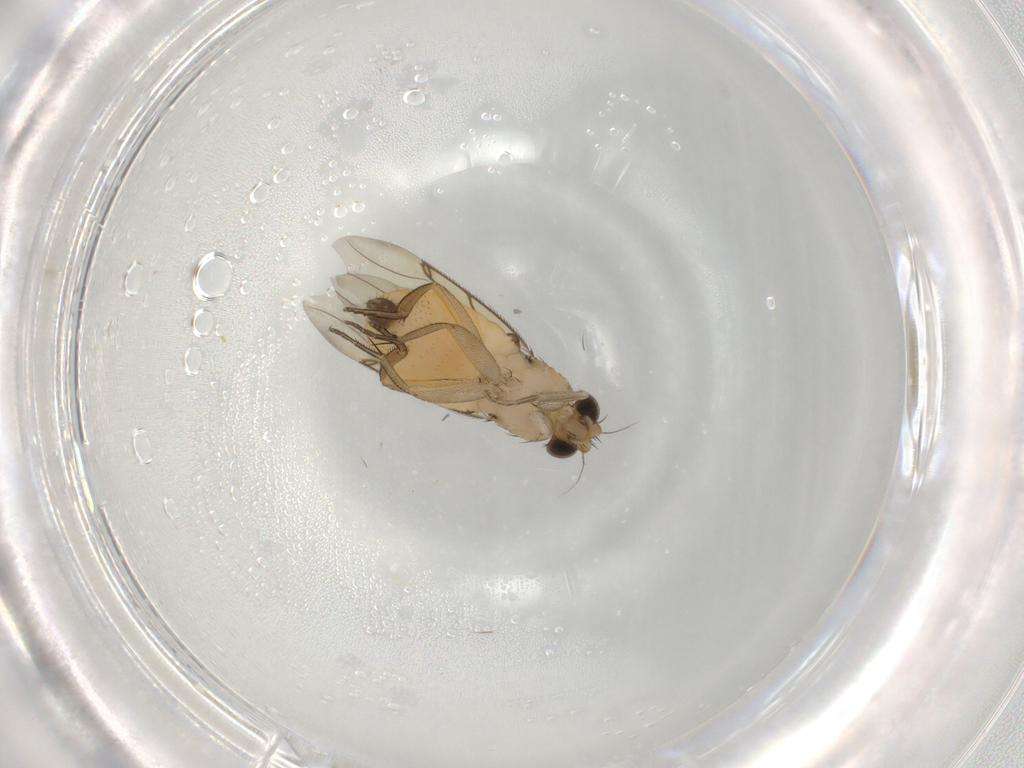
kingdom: Animalia
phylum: Arthropoda
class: Insecta
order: Diptera
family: Phoridae
